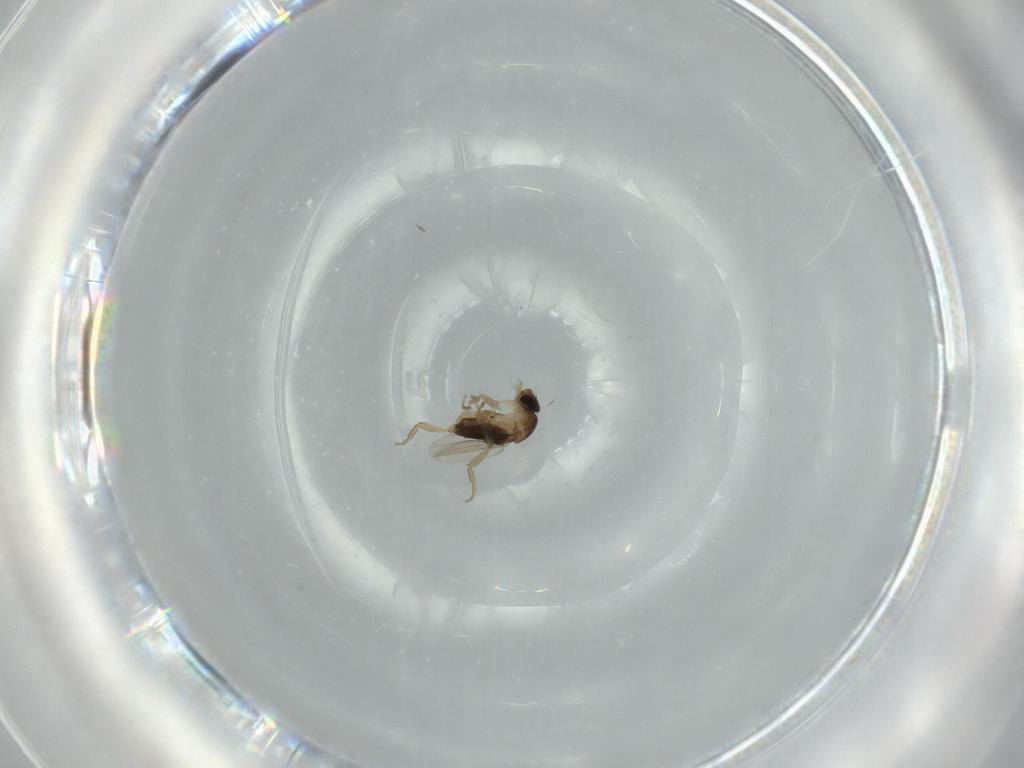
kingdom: Animalia
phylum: Arthropoda
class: Insecta
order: Diptera
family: Phoridae
